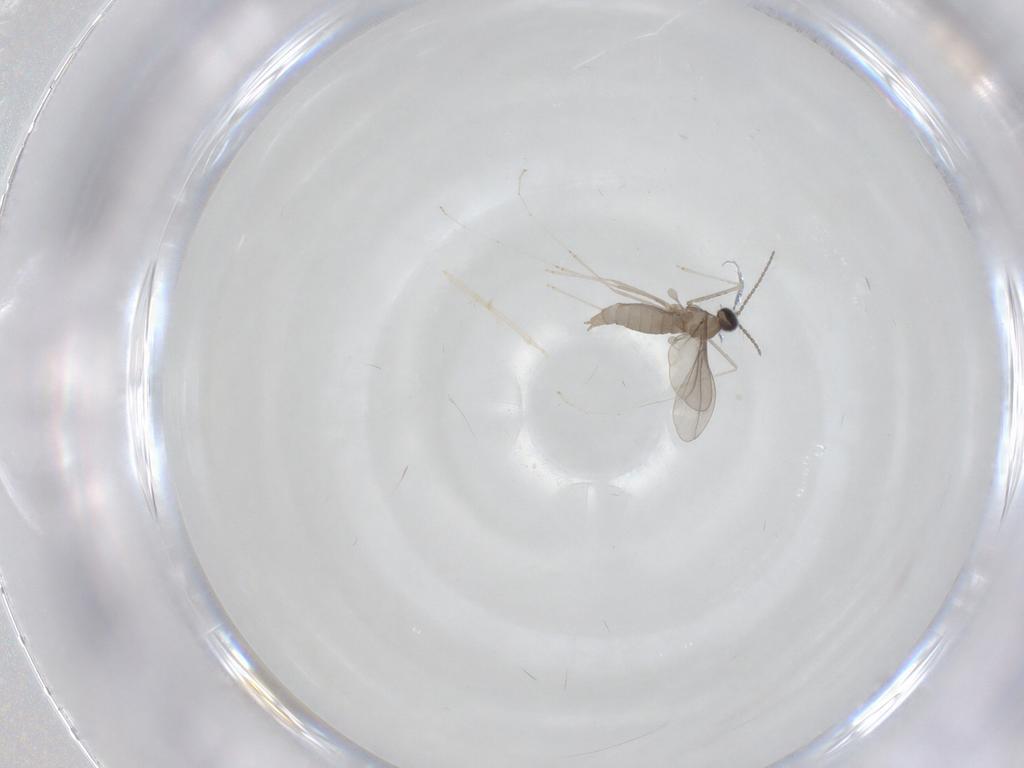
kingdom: Animalia
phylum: Arthropoda
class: Insecta
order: Diptera
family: Cecidomyiidae
